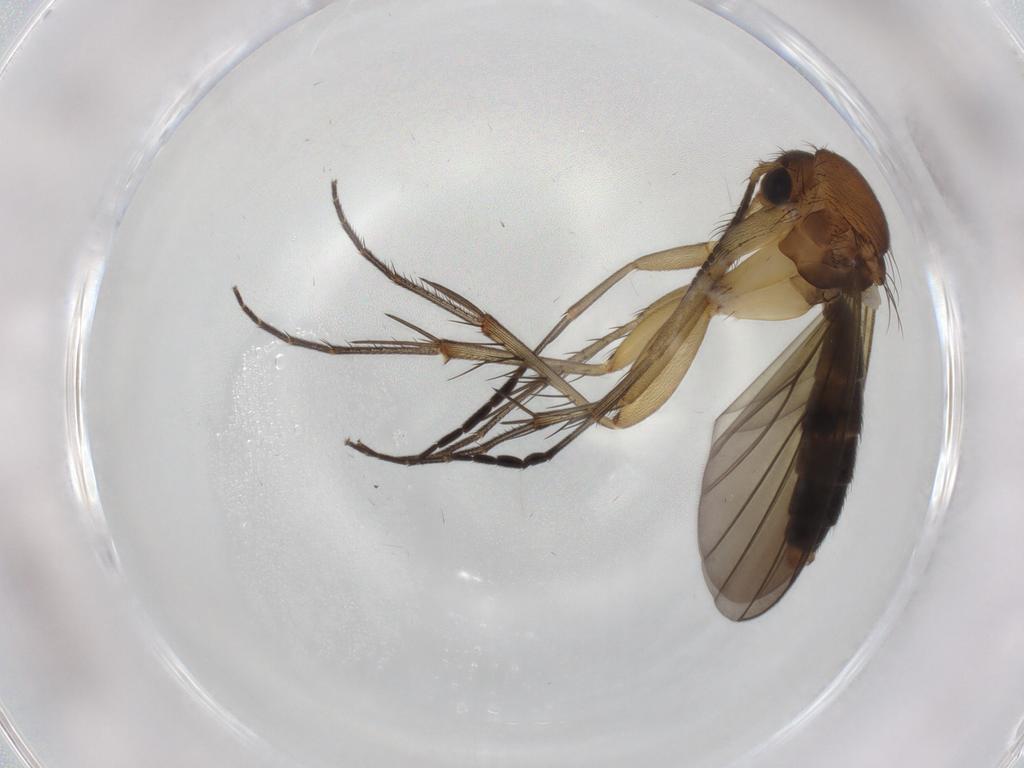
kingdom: Animalia
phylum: Arthropoda
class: Insecta
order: Diptera
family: Mycetophilidae
